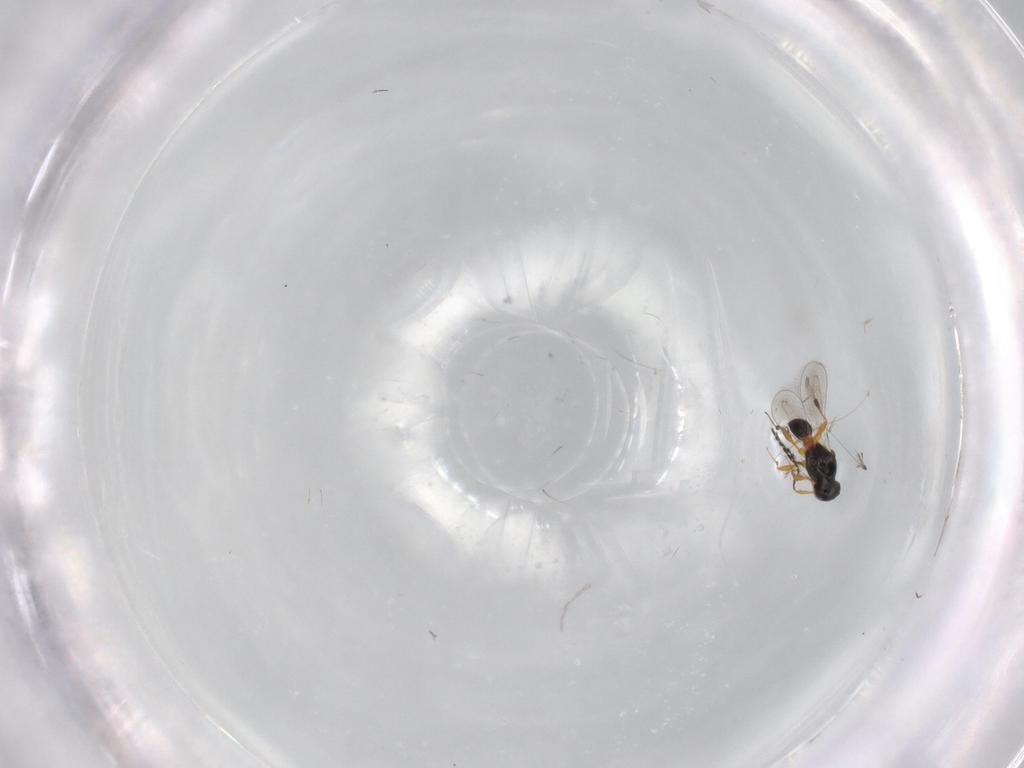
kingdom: Animalia
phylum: Arthropoda
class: Insecta
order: Hymenoptera
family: Platygastridae
